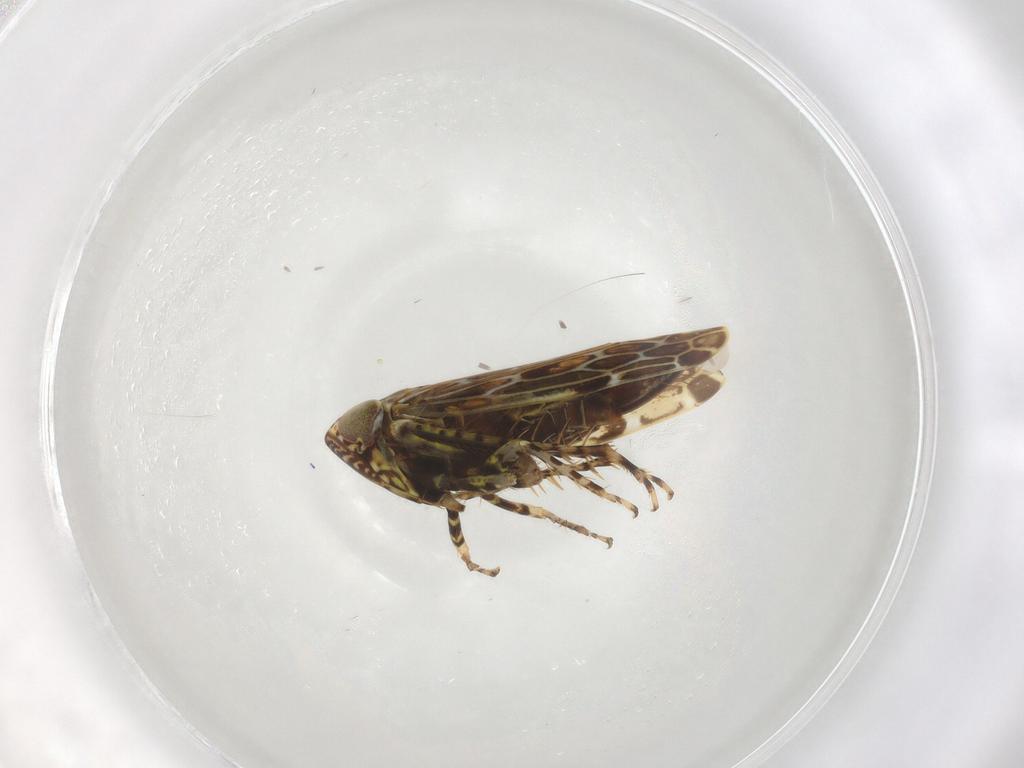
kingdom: Animalia
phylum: Arthropoda
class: Insecta
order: Hemiptera
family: Cicadellidae
